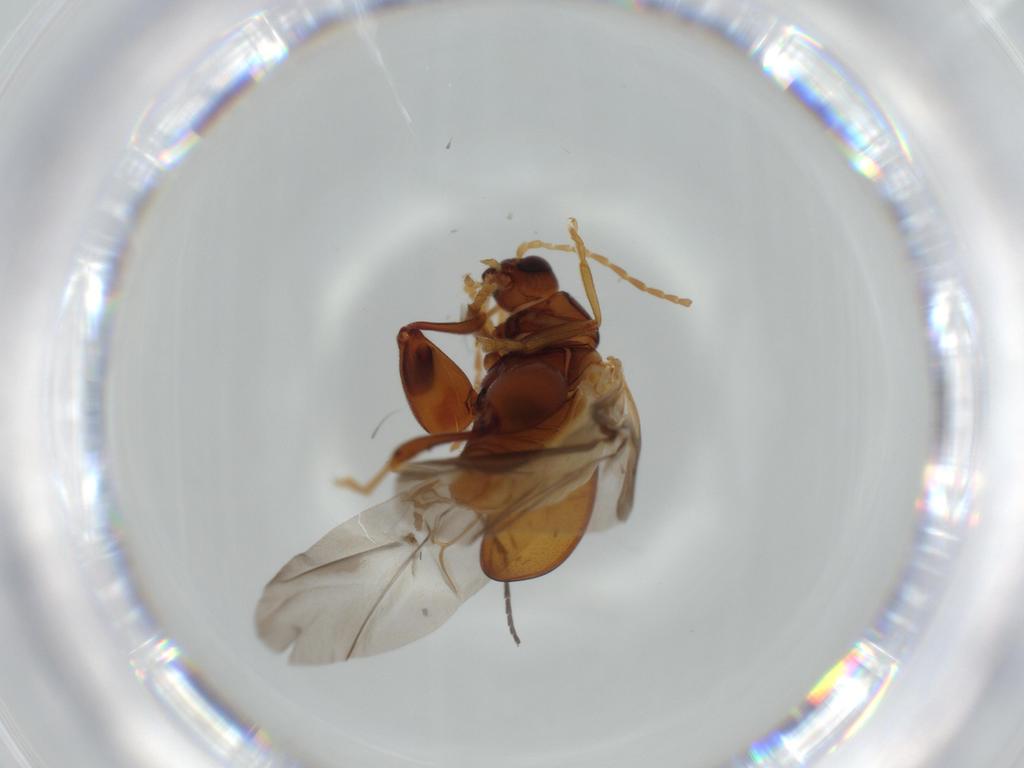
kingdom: Animalia
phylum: Arthropoda
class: Insecta
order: Coleoptera
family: Chrysomelidae
